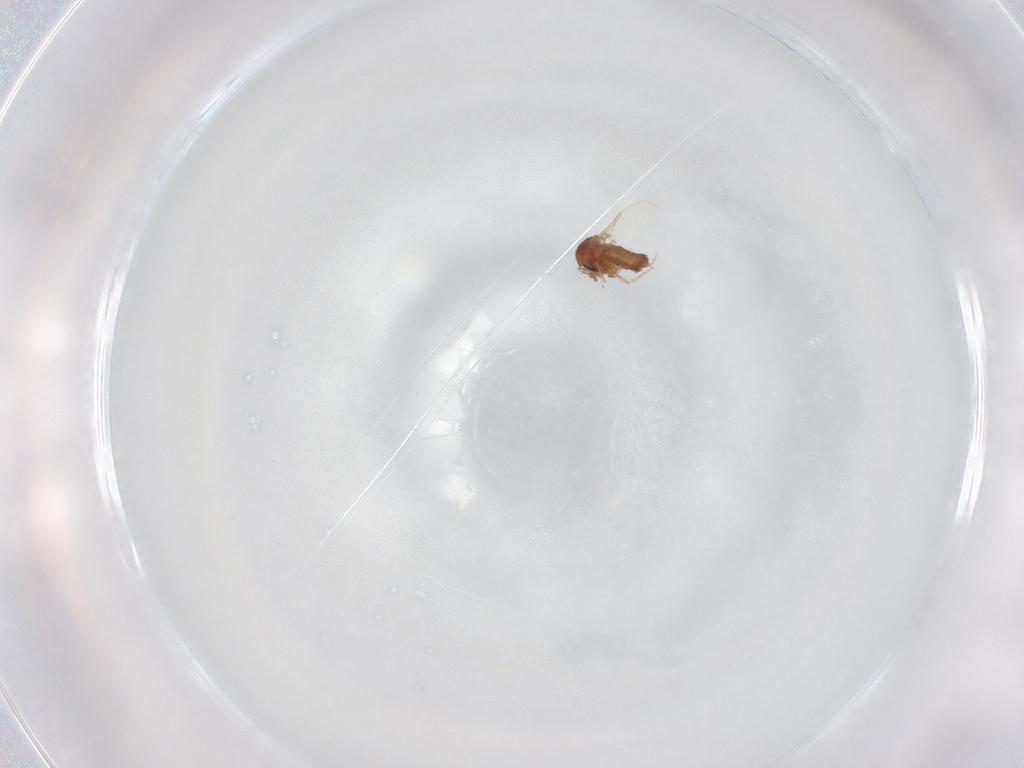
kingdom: Animalia
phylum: Arthropoda
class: Insecta
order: Diptera
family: Ceratopogonidae
